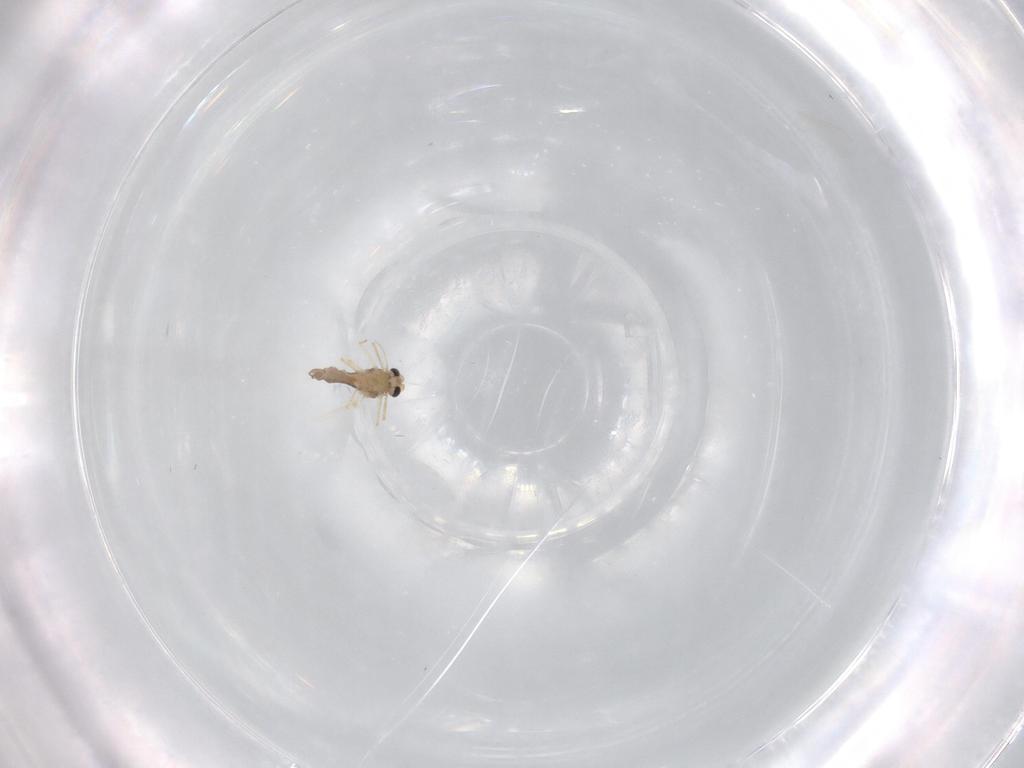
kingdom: Animalia
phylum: Arthropoda
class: Insecta
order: Diptera
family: Chironomidae
